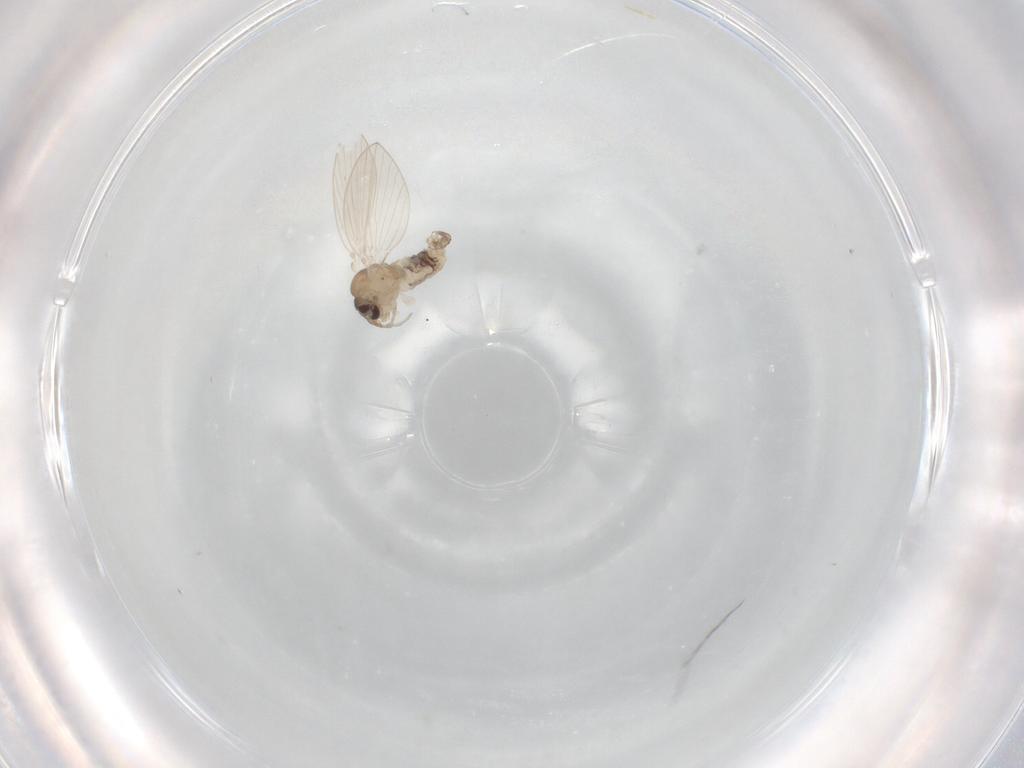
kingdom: Animalia
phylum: Arthropoda
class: Insecta
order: Diptera
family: Psychodidae
